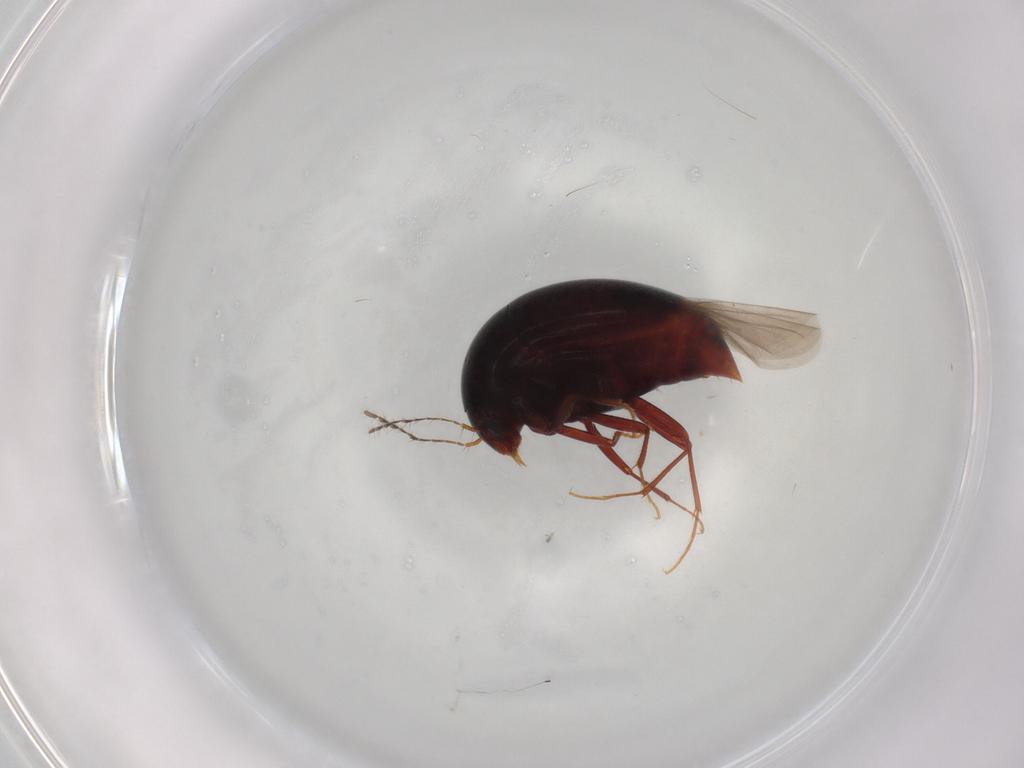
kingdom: Animalia
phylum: Arthropoda
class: Insecta
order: Coleoptera
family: Staphylinidae
